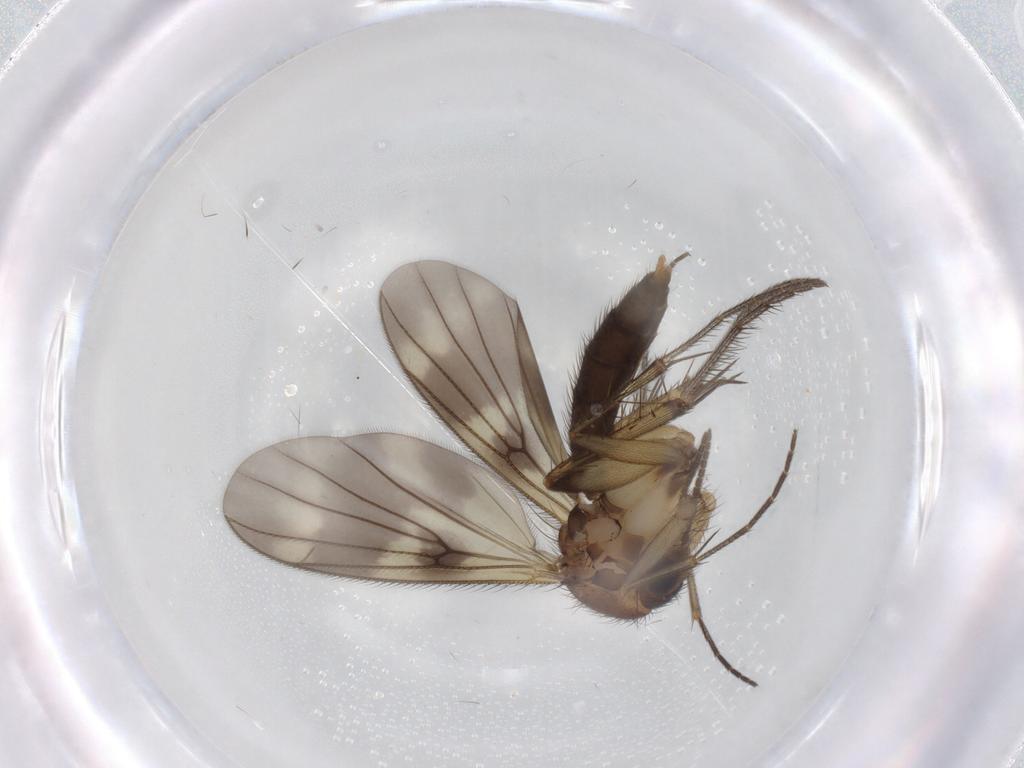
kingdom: Animalia
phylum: Arthropoda
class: Insecta
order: Diptera
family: Mycetophilidae
